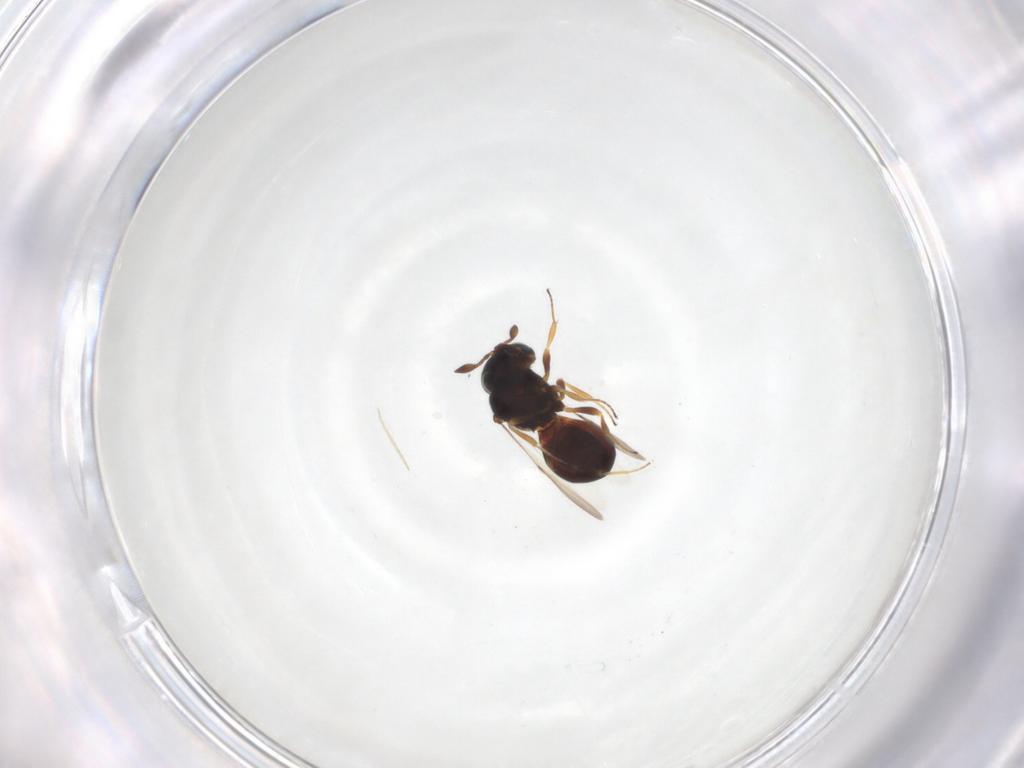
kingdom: Animalia
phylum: Arthropoda
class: Insecta
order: Hymenoptera
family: Scelionidae
